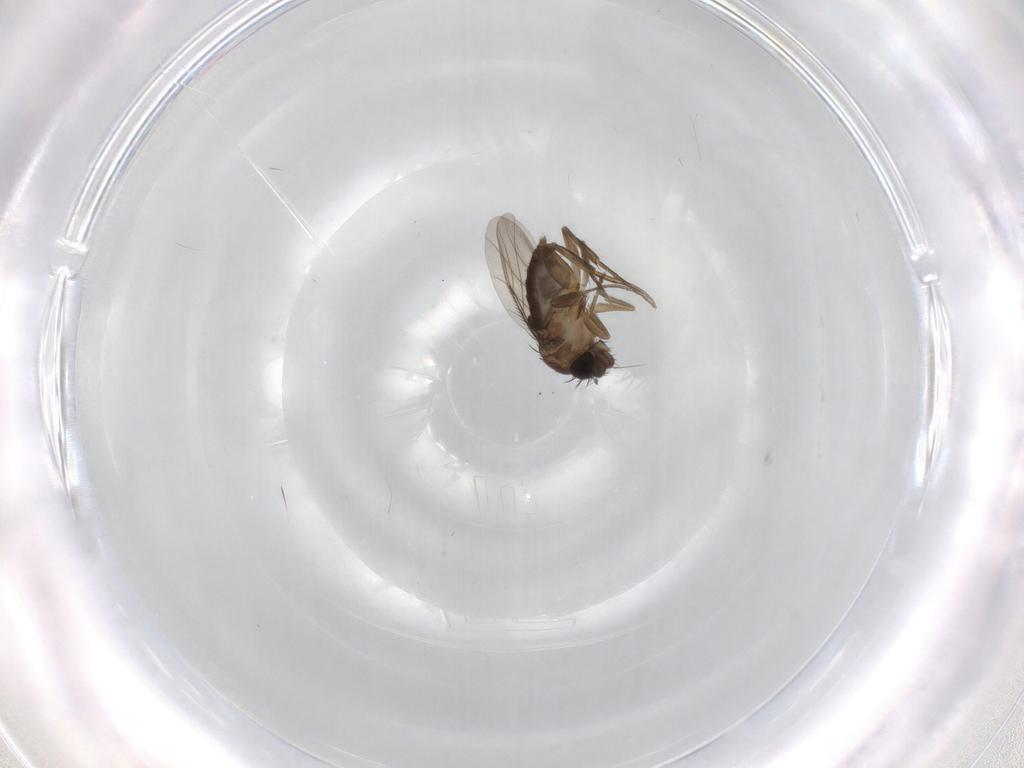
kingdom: Animalia
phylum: Arthropoda
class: Insecta
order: Diptera
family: Phoridae
